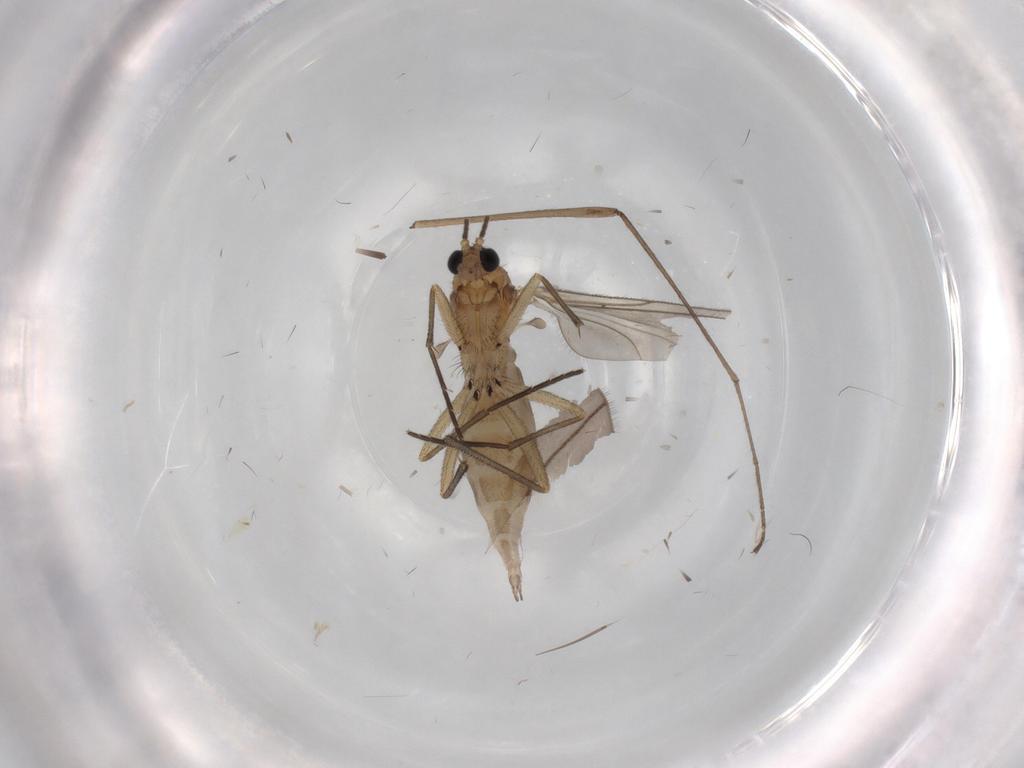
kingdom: Animalia
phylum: Arthropoda
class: Insecta
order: Diptera
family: Sciaridae
